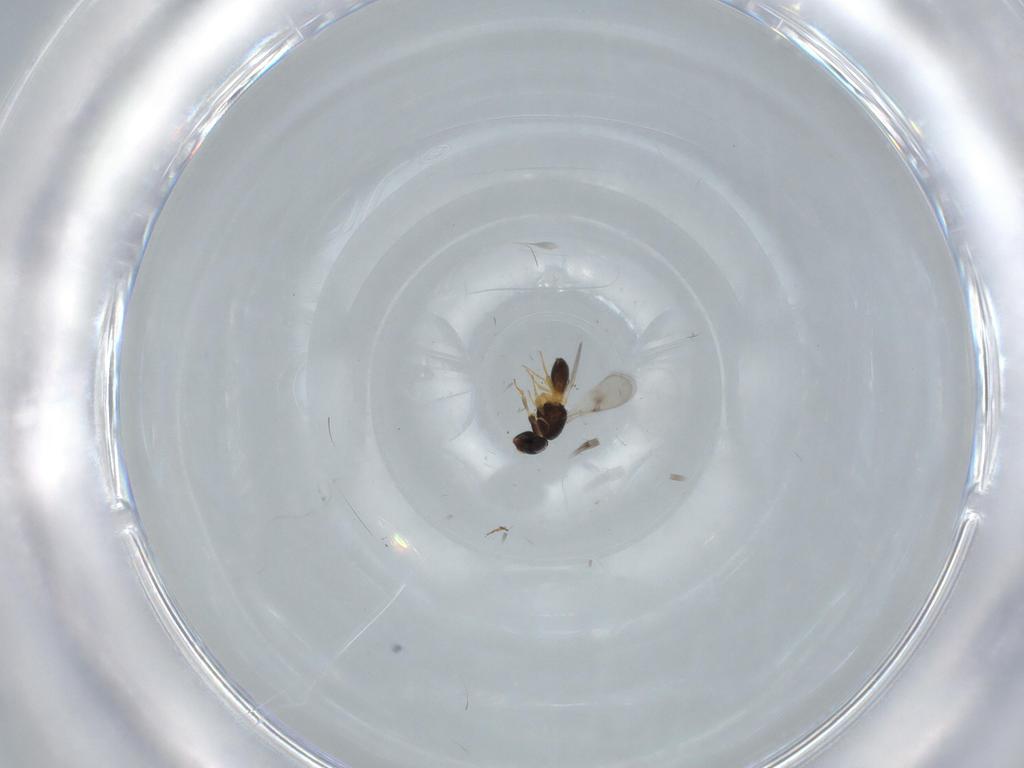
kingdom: Animalia
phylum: Arthropoda
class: Insecta
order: Hymenoptera
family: Scelionidae
